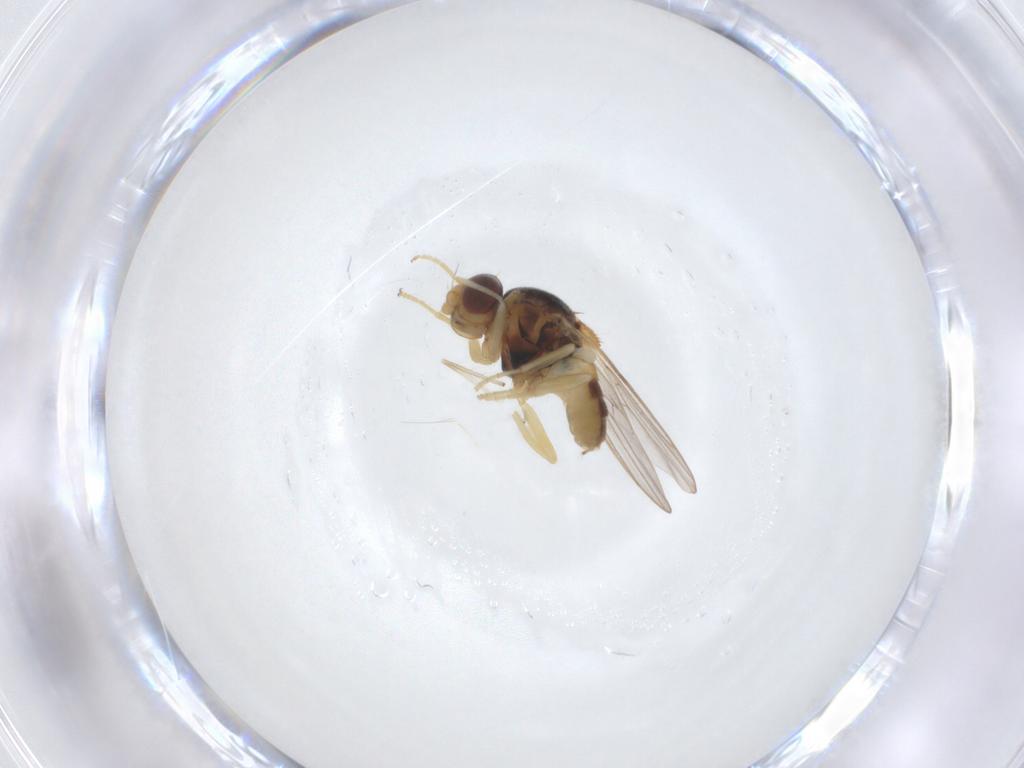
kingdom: Animalia
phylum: Arthropoda
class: Insecta
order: Diptera
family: Chloropidae
